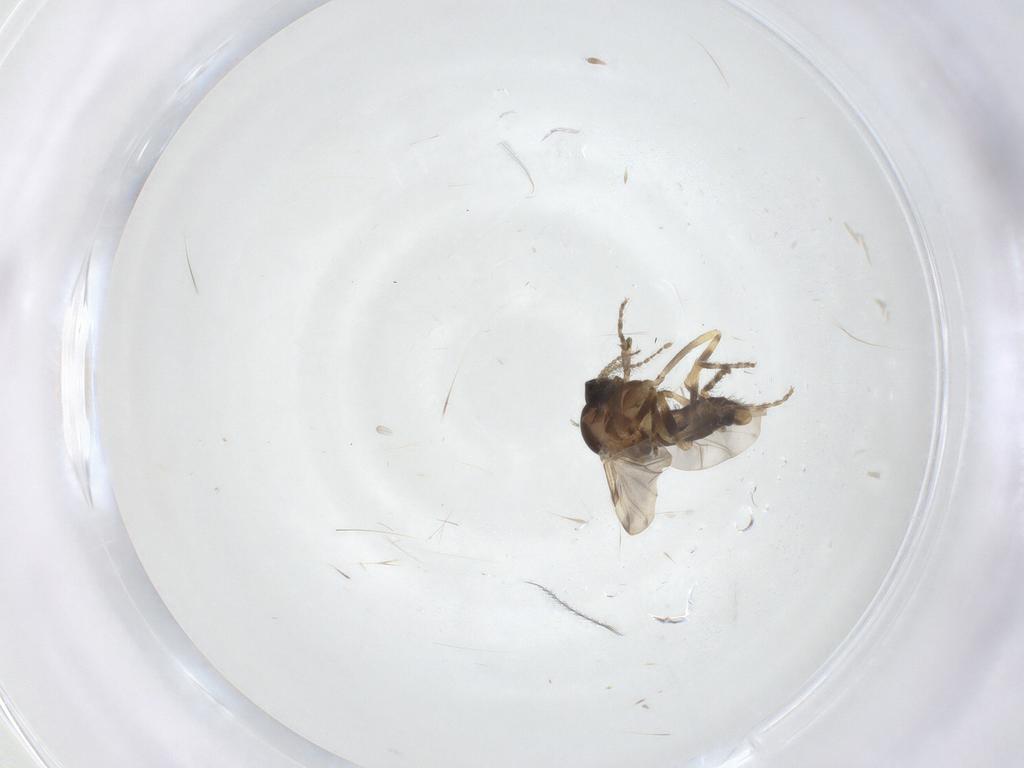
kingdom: Animalia
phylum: Arthropoda
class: Insecta
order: Diptera
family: Ceratopogonidae
